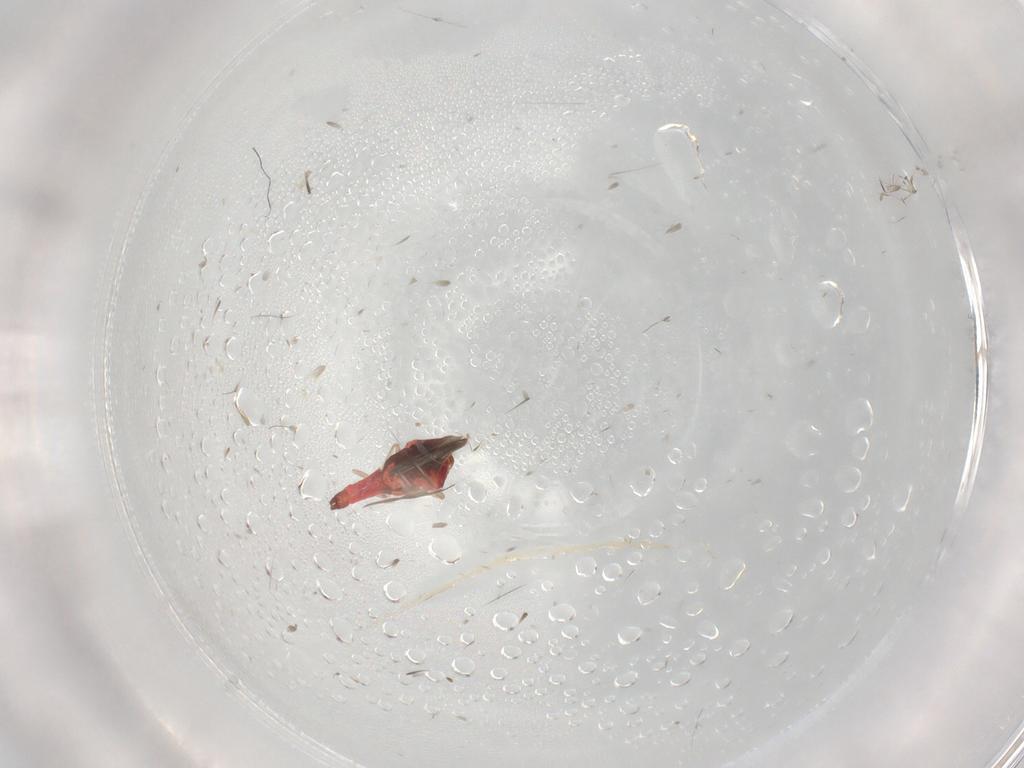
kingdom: Animalia
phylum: Arthropoda
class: Insecta
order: Hemiptera
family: Aleyrodidae
